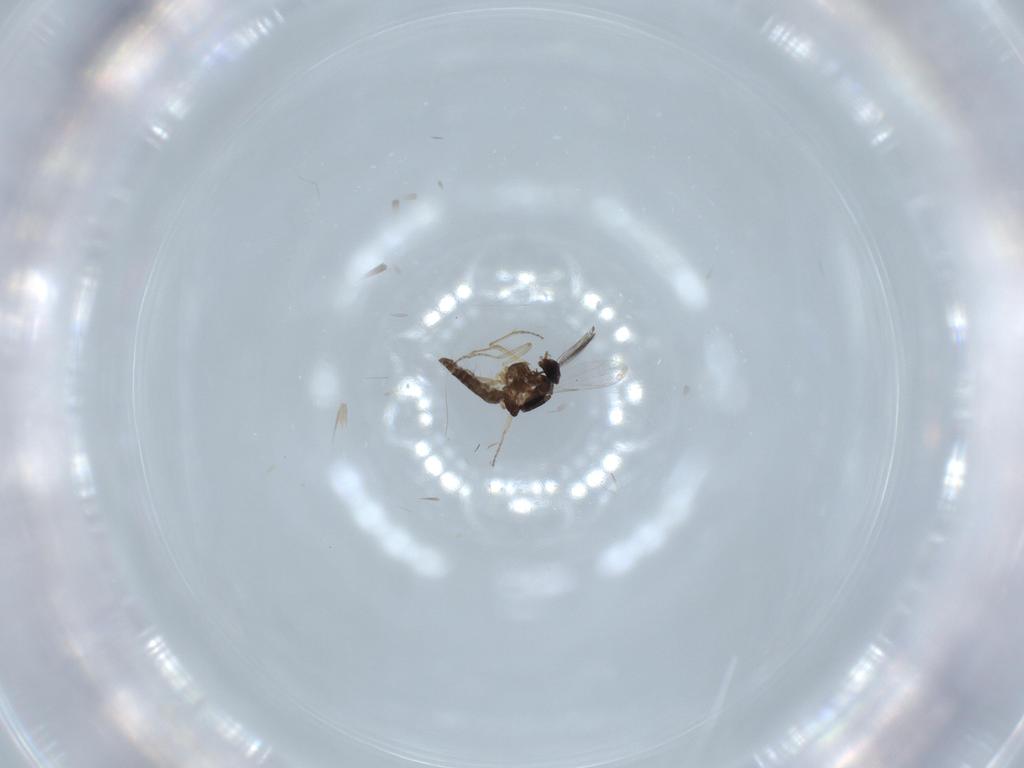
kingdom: Animalia
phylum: Arthropoda
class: Insecta
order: Diptera
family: Ceratopogonidae
